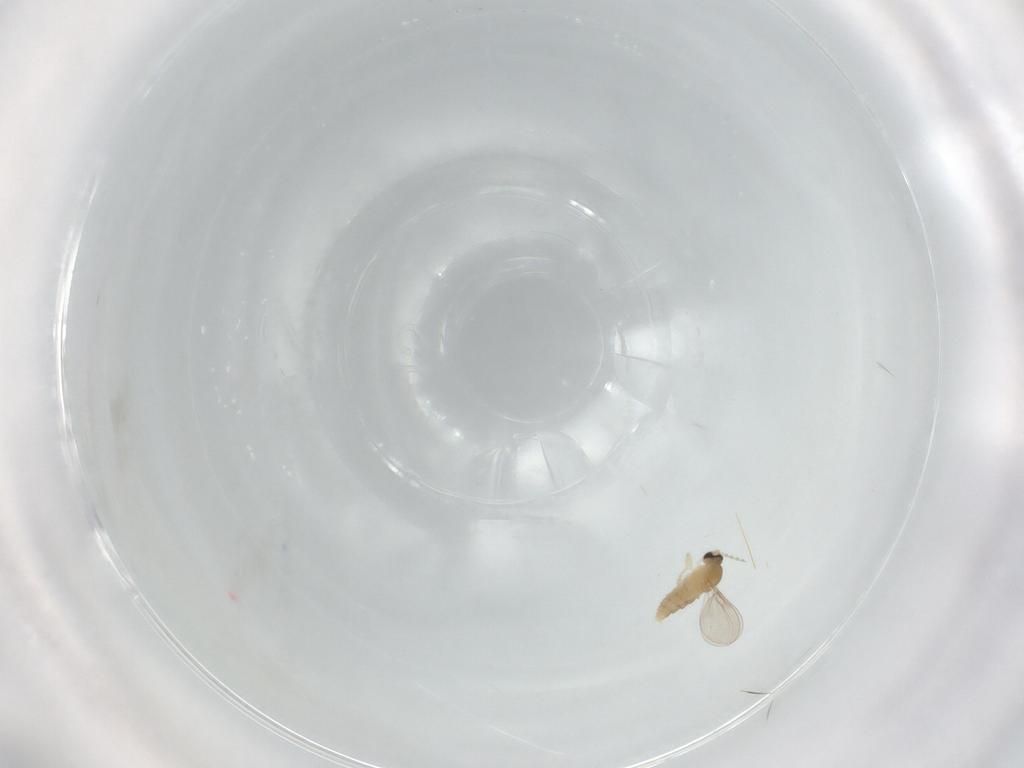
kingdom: Animalia
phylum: Arthropoda
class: Insecta
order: Diptera
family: Cecidomyiidae
